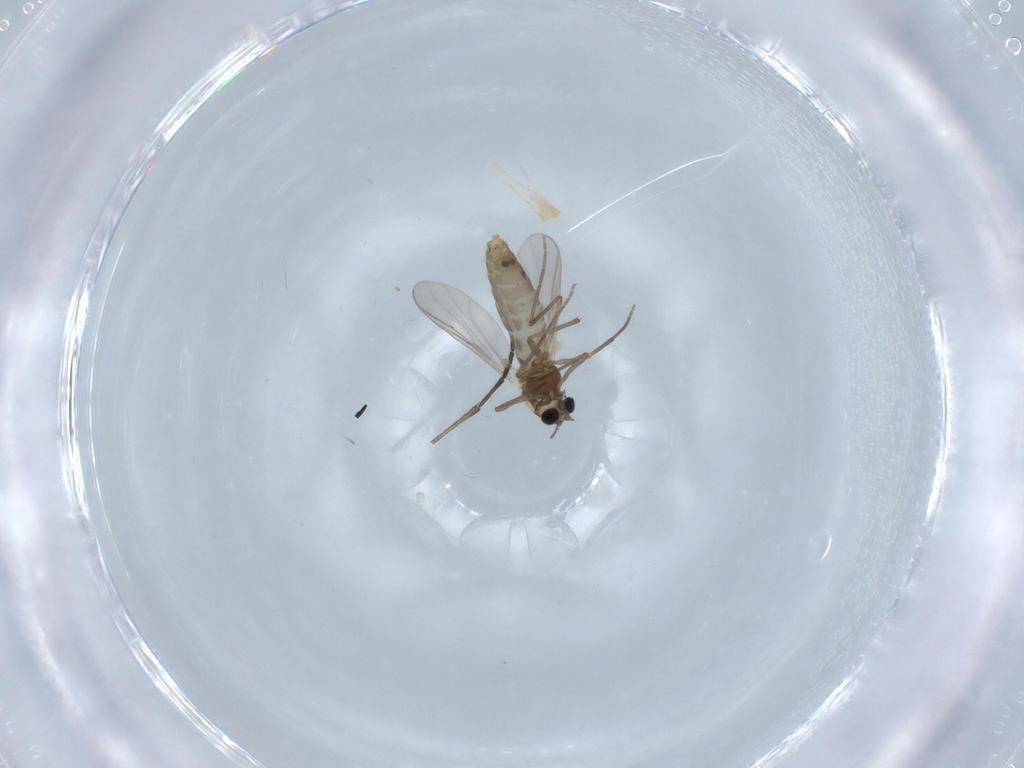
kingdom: Animalia
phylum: Arthropoda
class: Insecta
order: Diptera
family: Chironomidae
